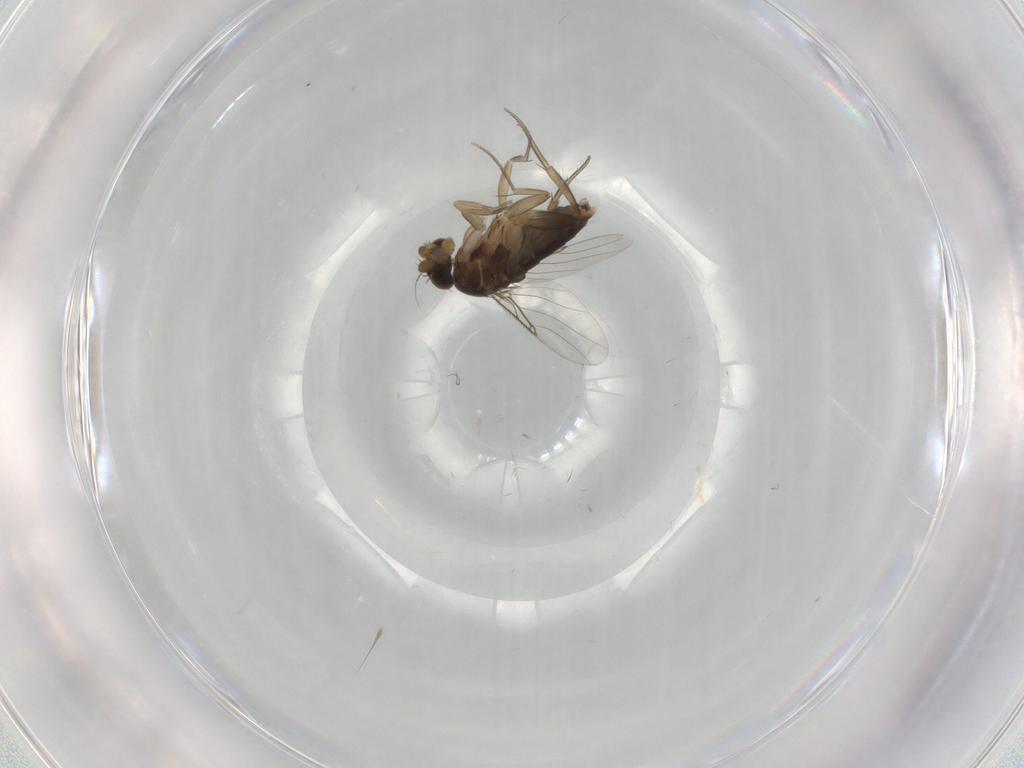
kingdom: Animalia
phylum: Arthropoda
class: Insecta
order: Diptera
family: Phoridae
